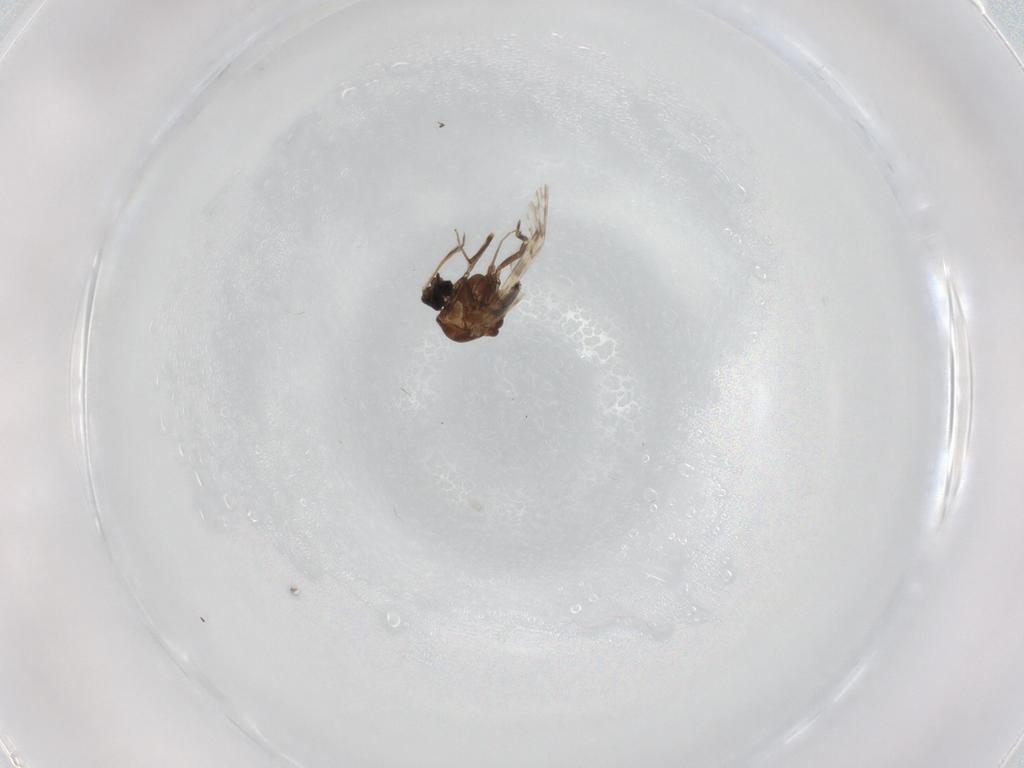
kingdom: Animalia
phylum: Arthropoda
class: Insecta
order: Diptera
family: Ceratopogonidae
